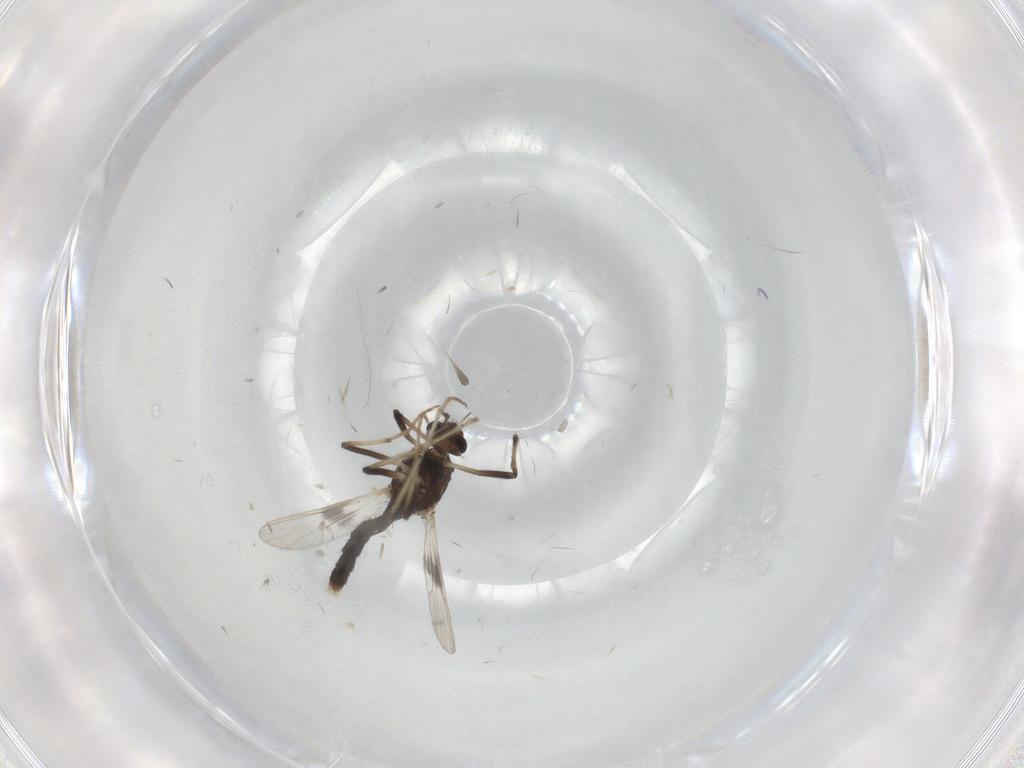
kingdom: Animalia
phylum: Arthropoda
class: Insecta
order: Diptera
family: Chironomidae
